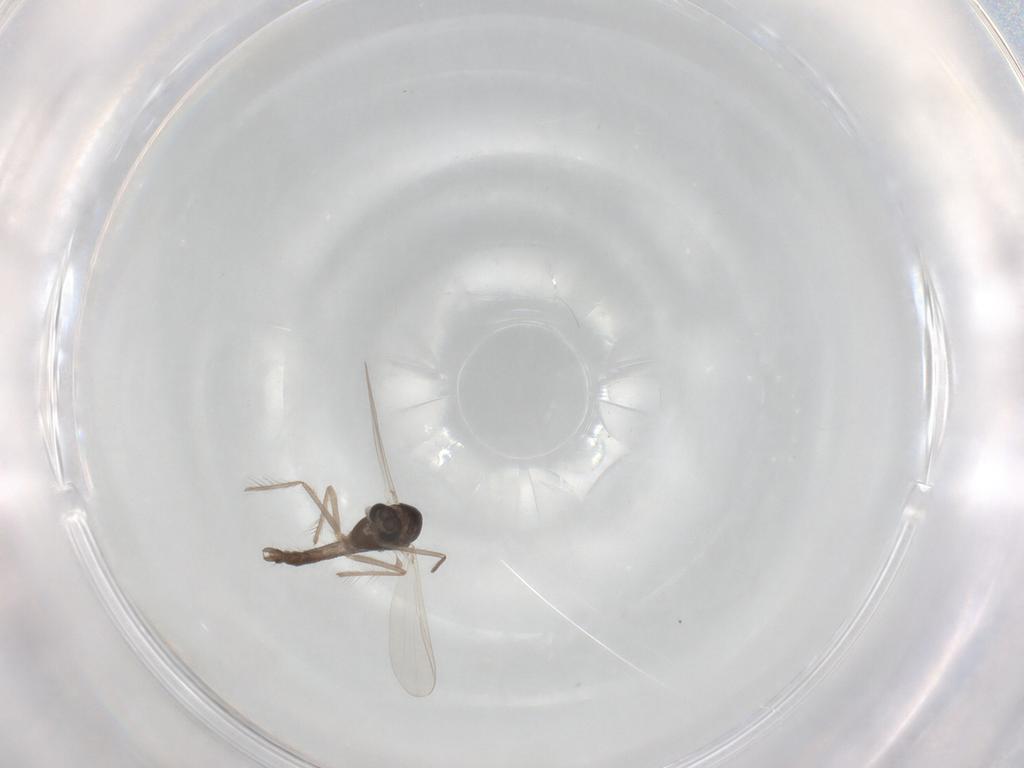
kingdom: Animalia
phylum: Arthropoda
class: Insecta
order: Diptera
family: Chironomidae
